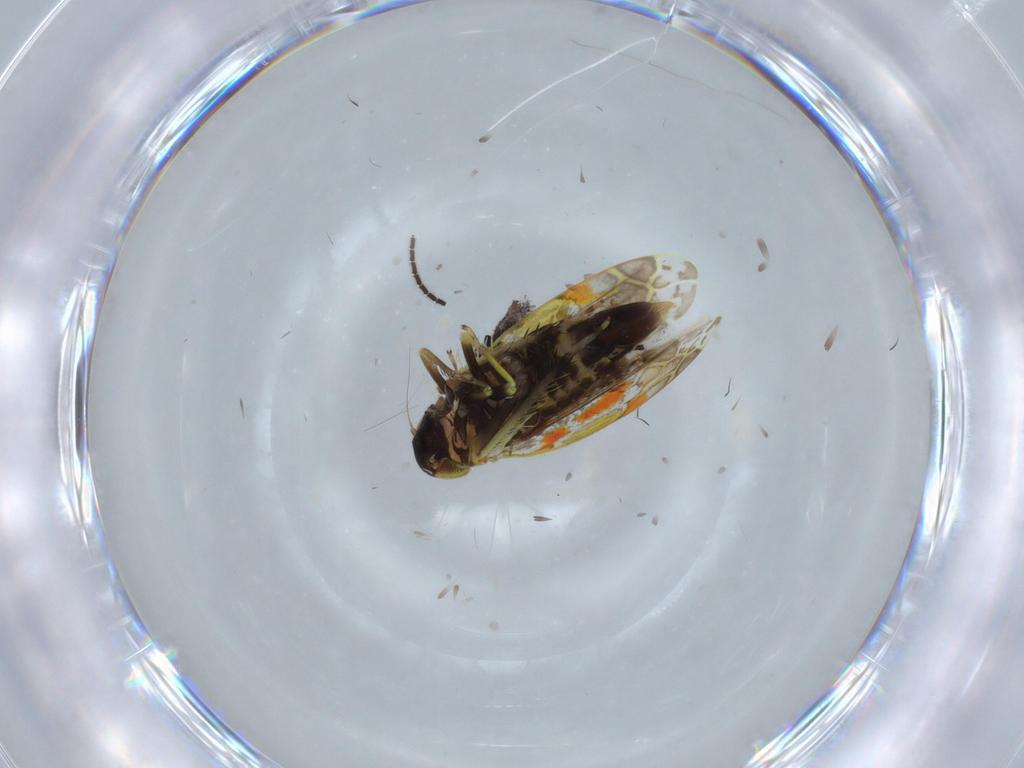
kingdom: Animalia
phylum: Arthropoda
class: Insecta
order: Hemiptera
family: Cicadellidae
